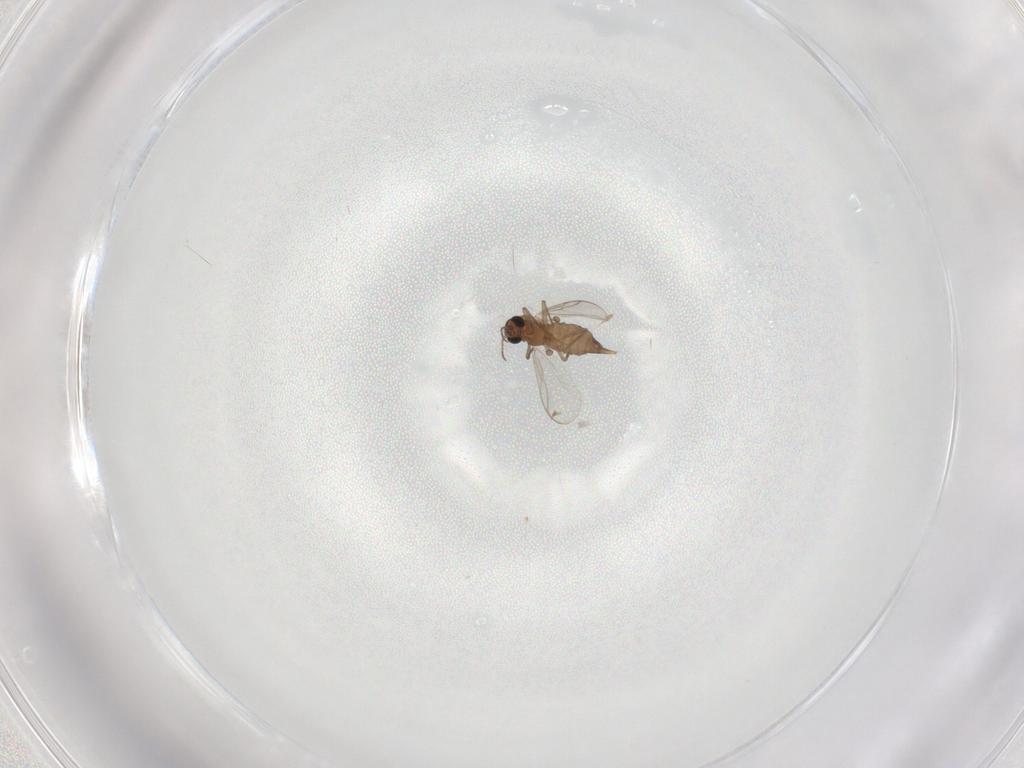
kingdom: Animalia
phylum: Arthropoda
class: Insecta
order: Diptera
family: Chironomidae
